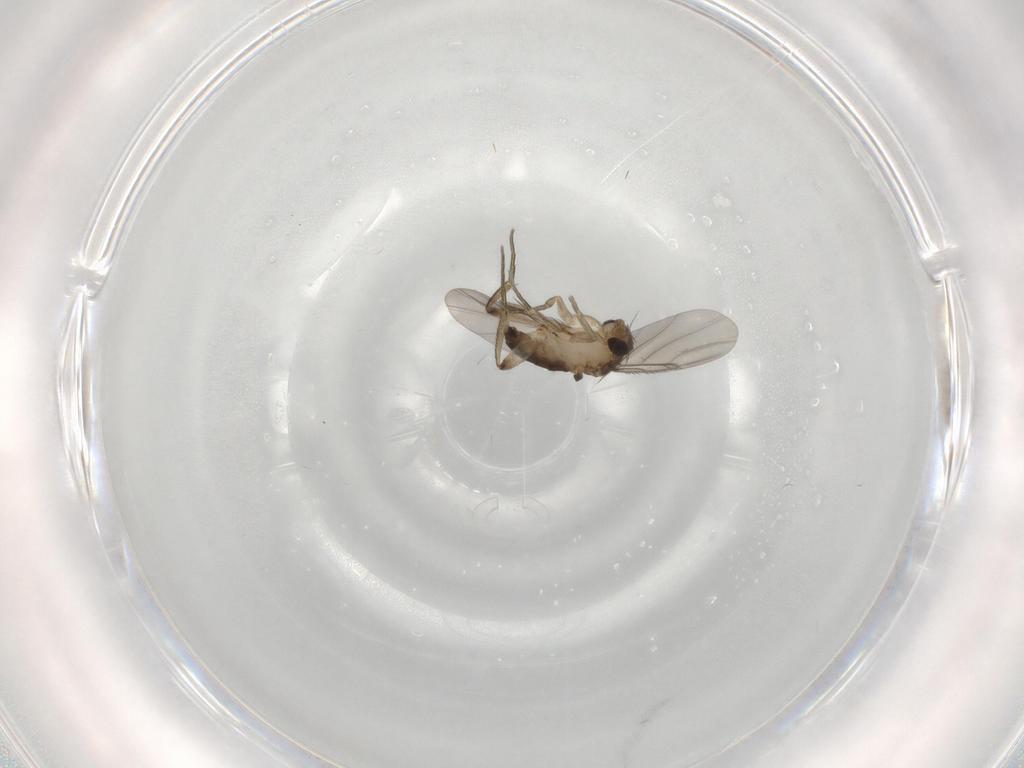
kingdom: Animalia
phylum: Arthropoda
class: Insecta
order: Diptera
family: Phoridae
